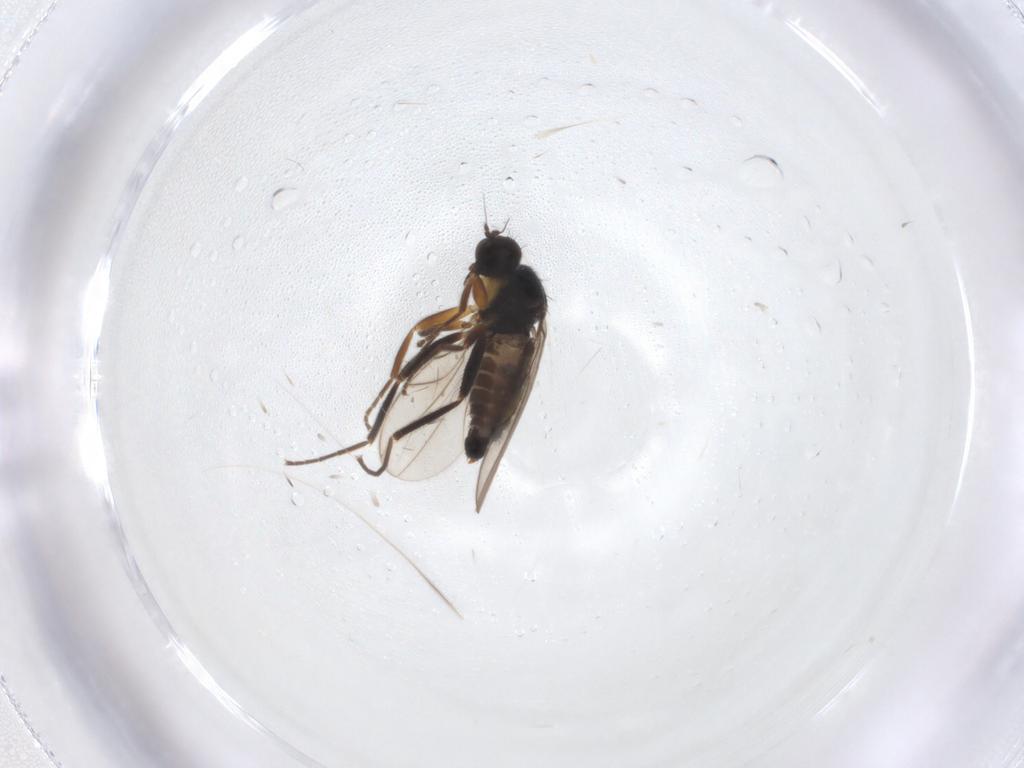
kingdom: Animalia
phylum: Arthropoda
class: Insecta
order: Diptera
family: Hybotidae
